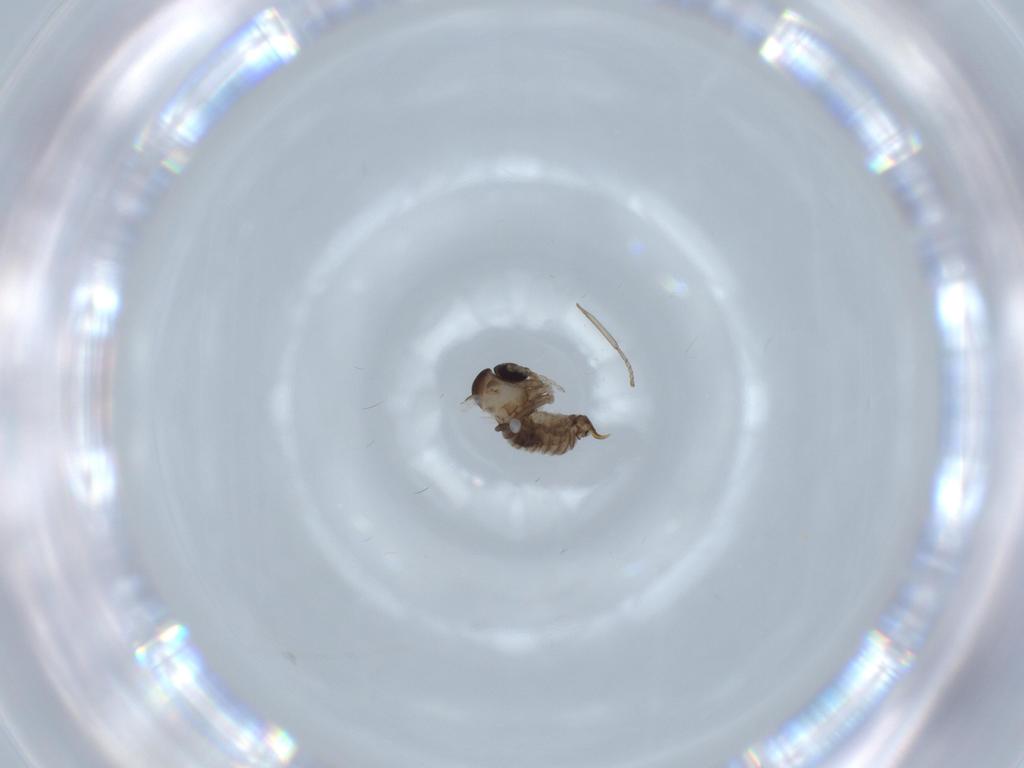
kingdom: Animalia
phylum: Arthropoda
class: Insecta
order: Diptera
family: Psychodidae
